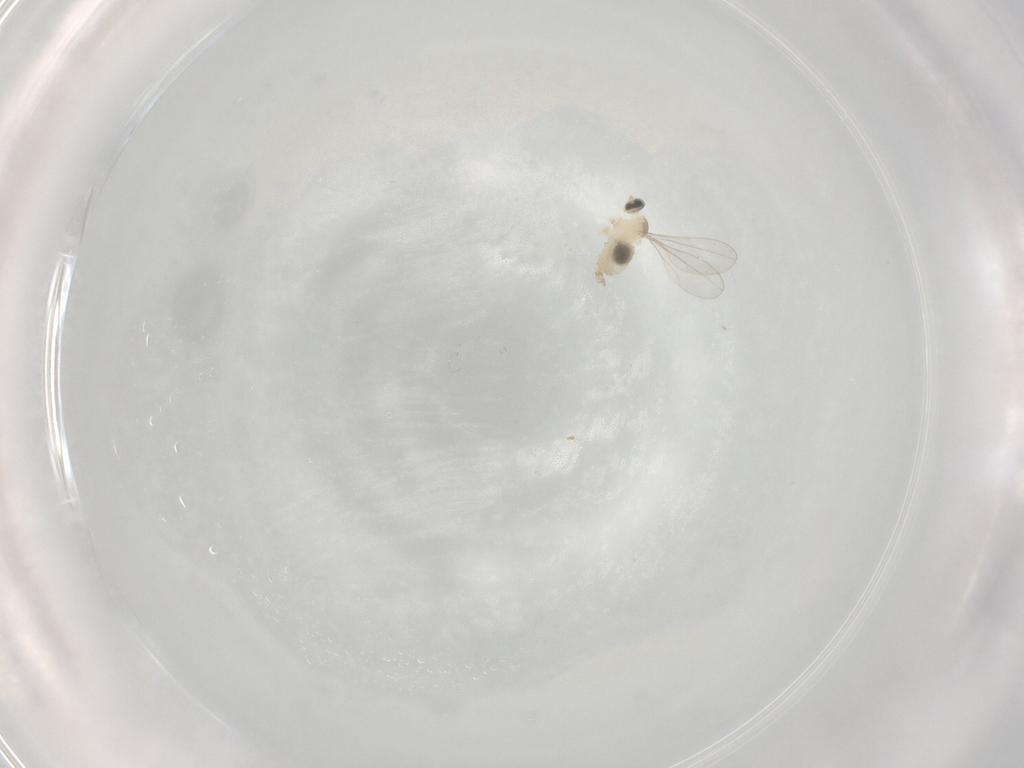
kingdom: Animalia
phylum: Arthropoda
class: Insecta
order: Diptera
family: Cecidomyiidae
